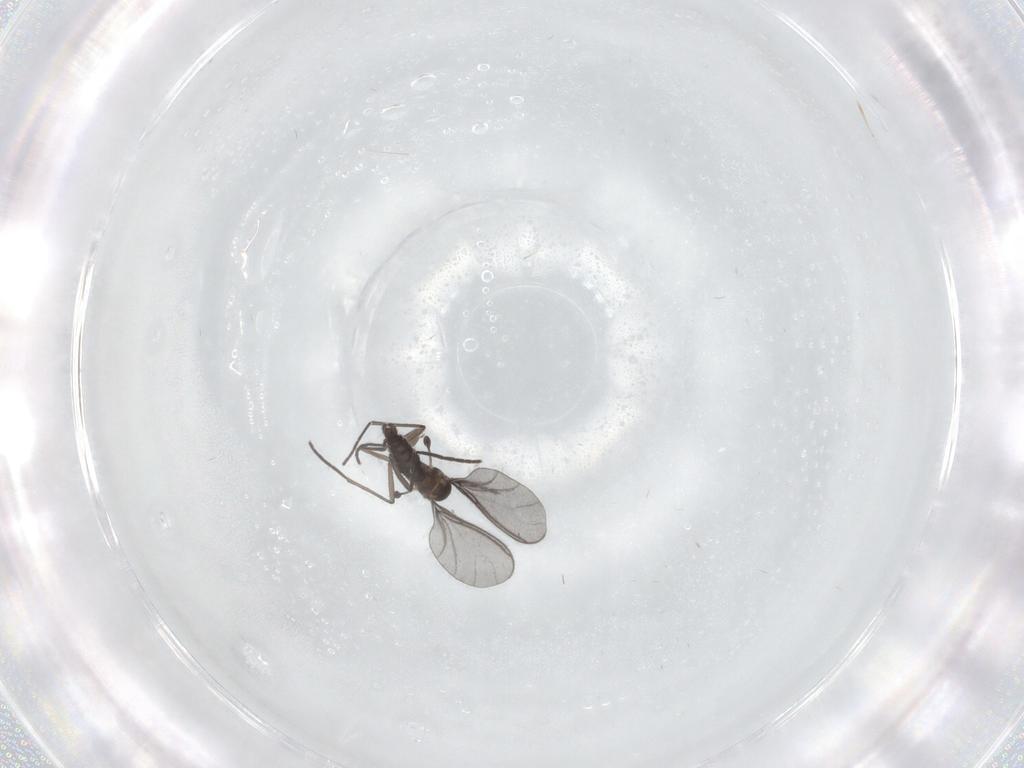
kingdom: Animalia
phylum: Arthropoda
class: Insecta
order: Diptera
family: Sciaridae
